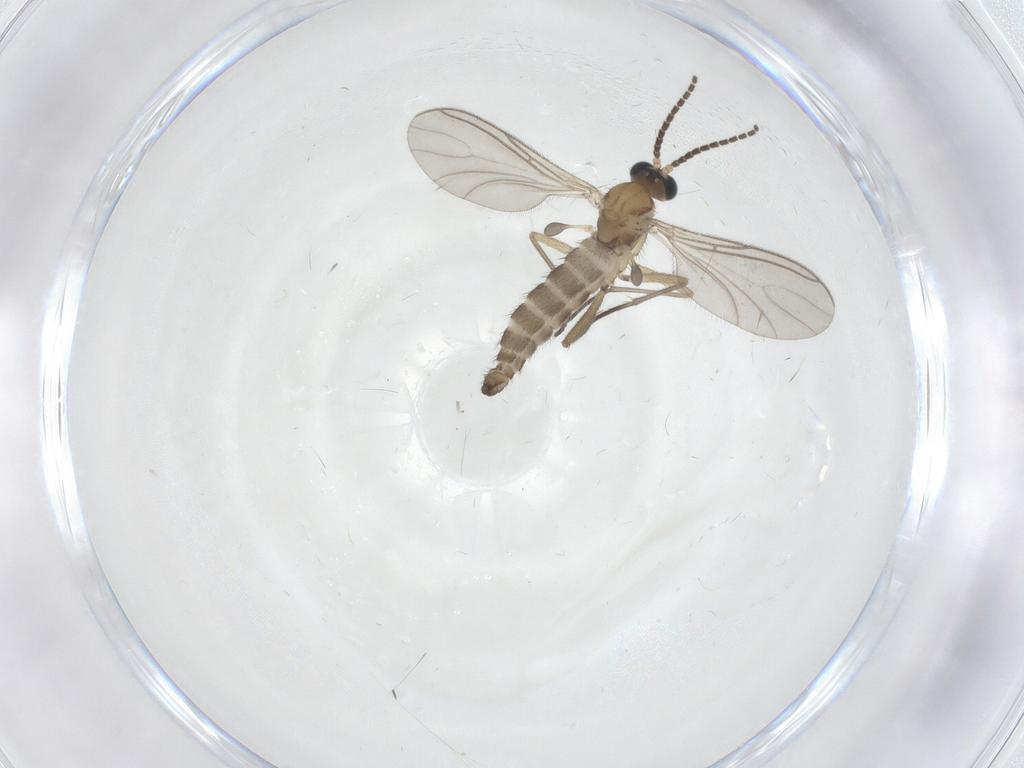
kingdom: Animalia
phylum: Arthropoda
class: Insecta
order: Diptera
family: Sciaridae
